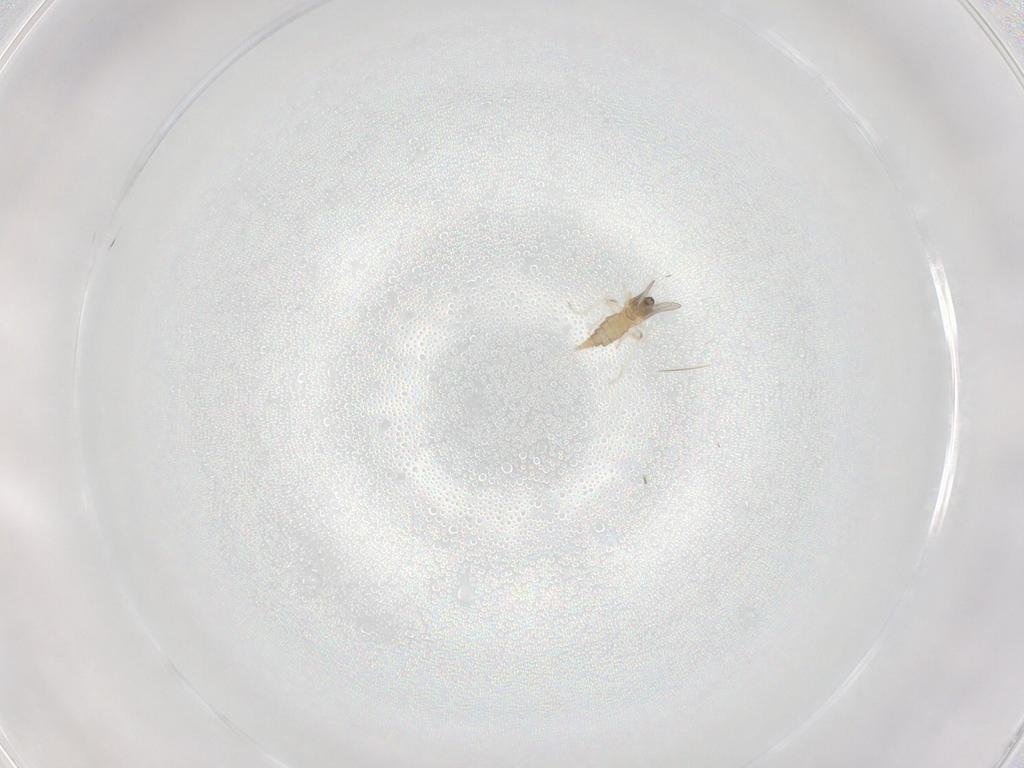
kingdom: Animalia
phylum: Arthropoda
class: Insecta
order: Diptera
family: Cecidomyiidae
